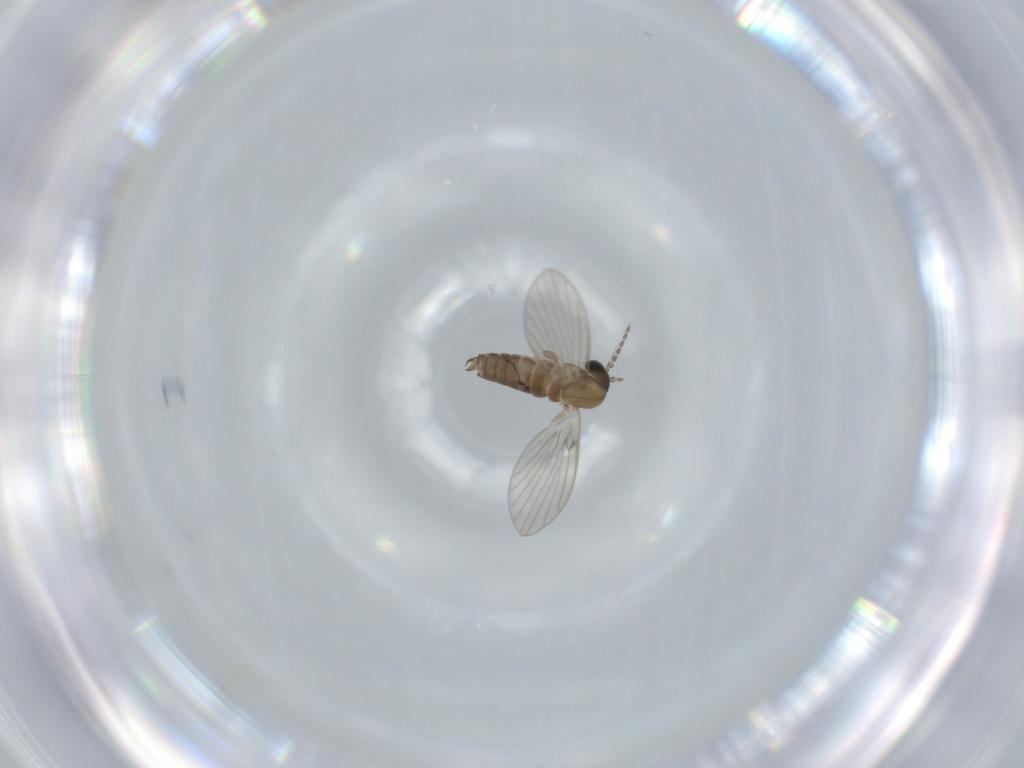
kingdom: Animalia
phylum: Arthropoda
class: Insecta
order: Diptera
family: Psychodidae
